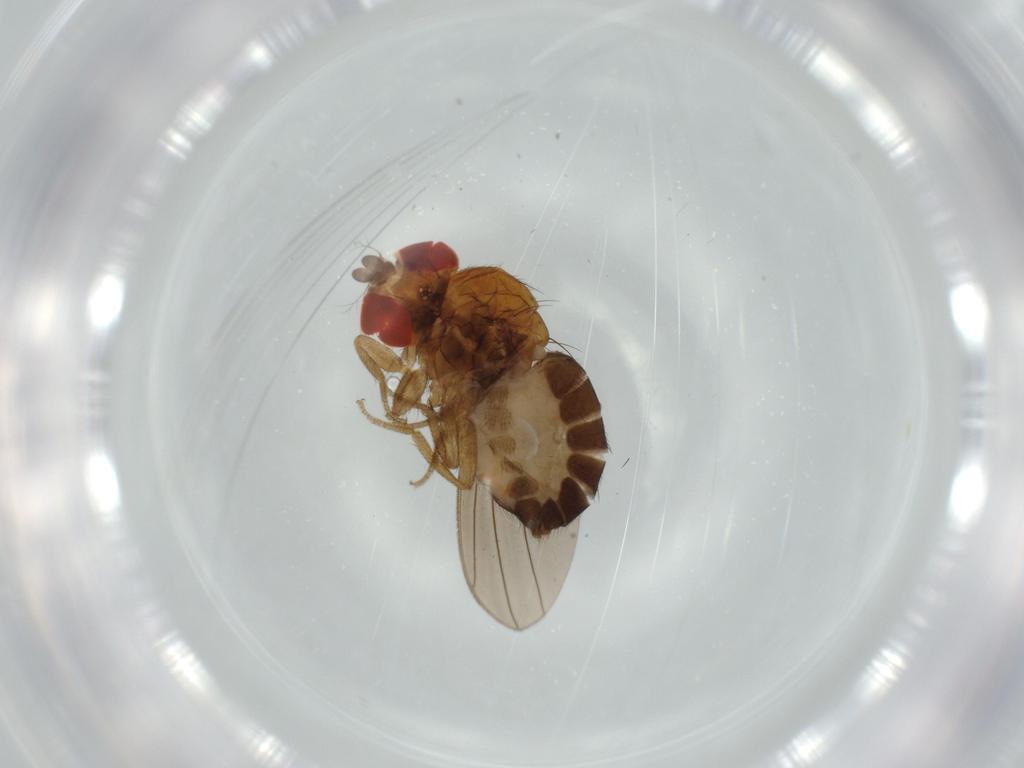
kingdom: Animalia
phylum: Arthropoda
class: Insecta
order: Diptera
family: Drosophilidae
